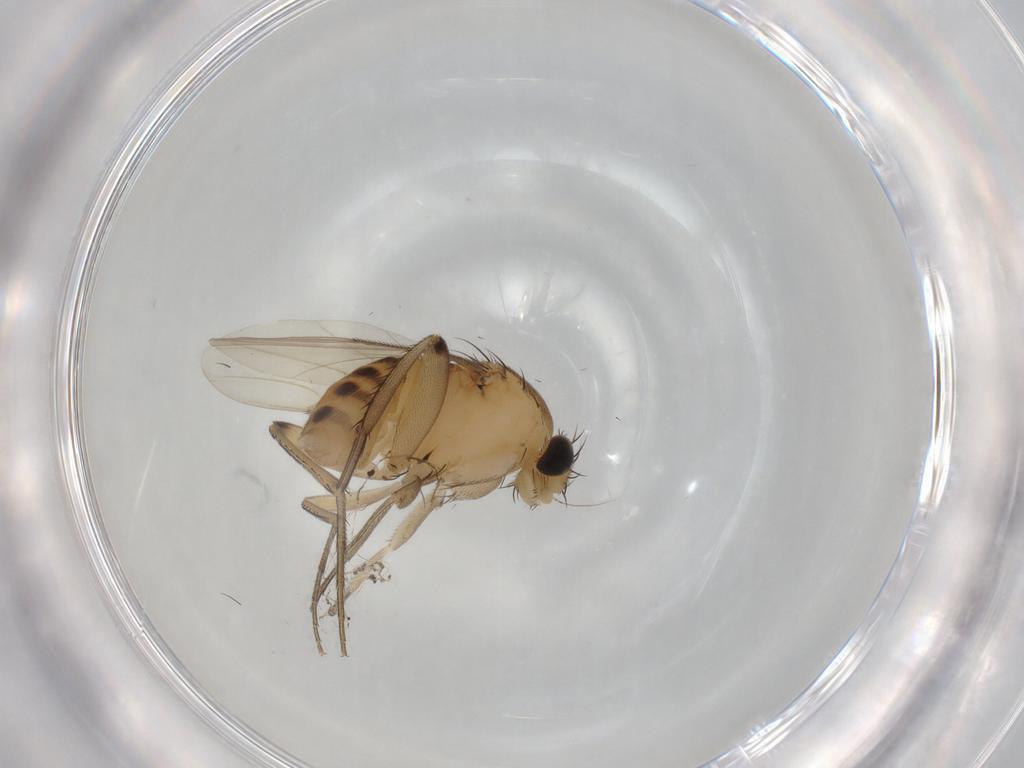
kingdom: Animalia
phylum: Arthropoda
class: Insecta
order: Diptera
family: Phoridae
